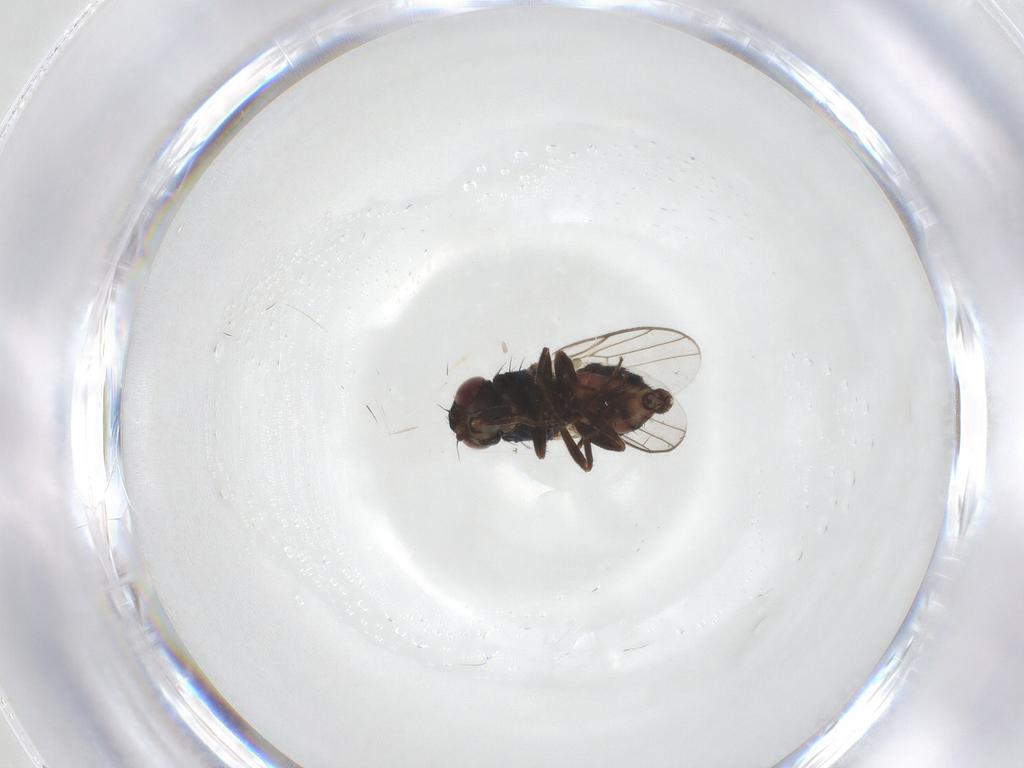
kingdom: Animalia
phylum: Arthropoda
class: Insecta
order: Diptera
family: Chloropidae
